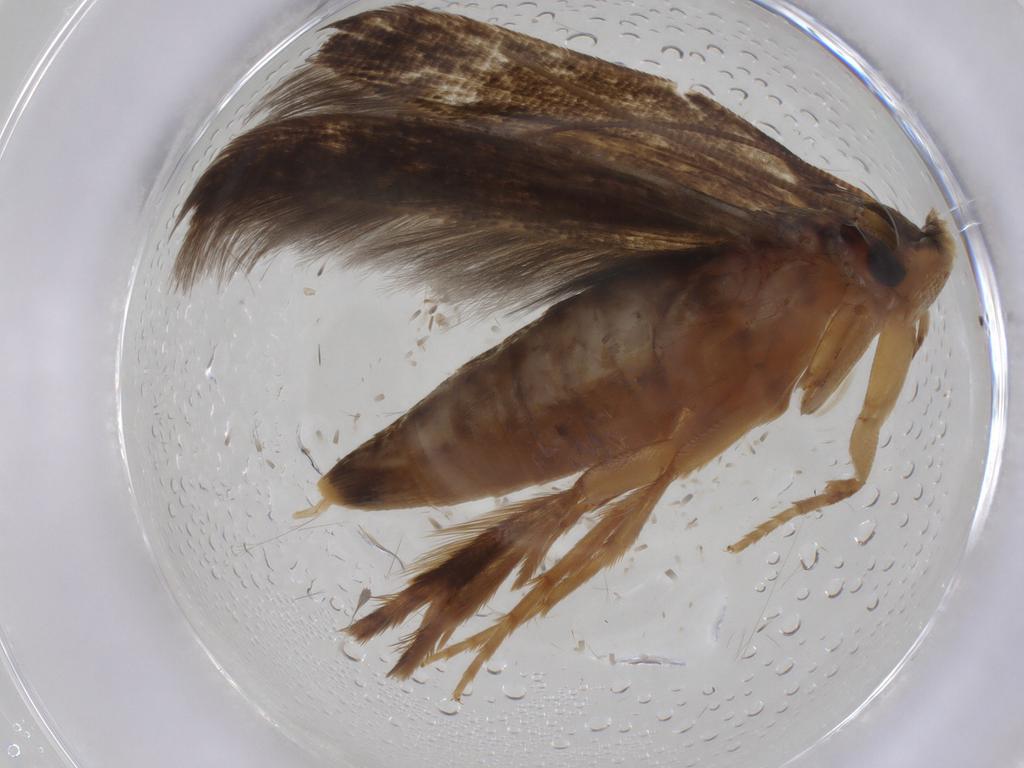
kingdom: Animalia
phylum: Arthropoda
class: Insecta
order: Lepidoptera
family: Tineidae
